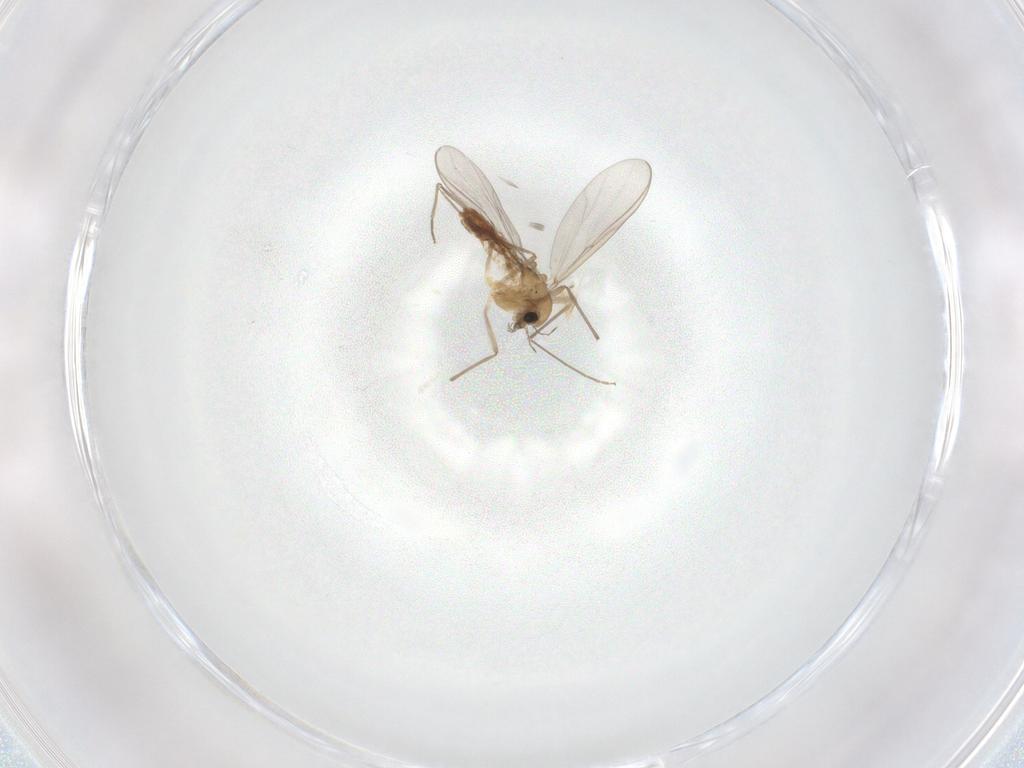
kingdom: Animalia
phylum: Arthropoda
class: Insecta
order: Diptera
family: Chironomidae
